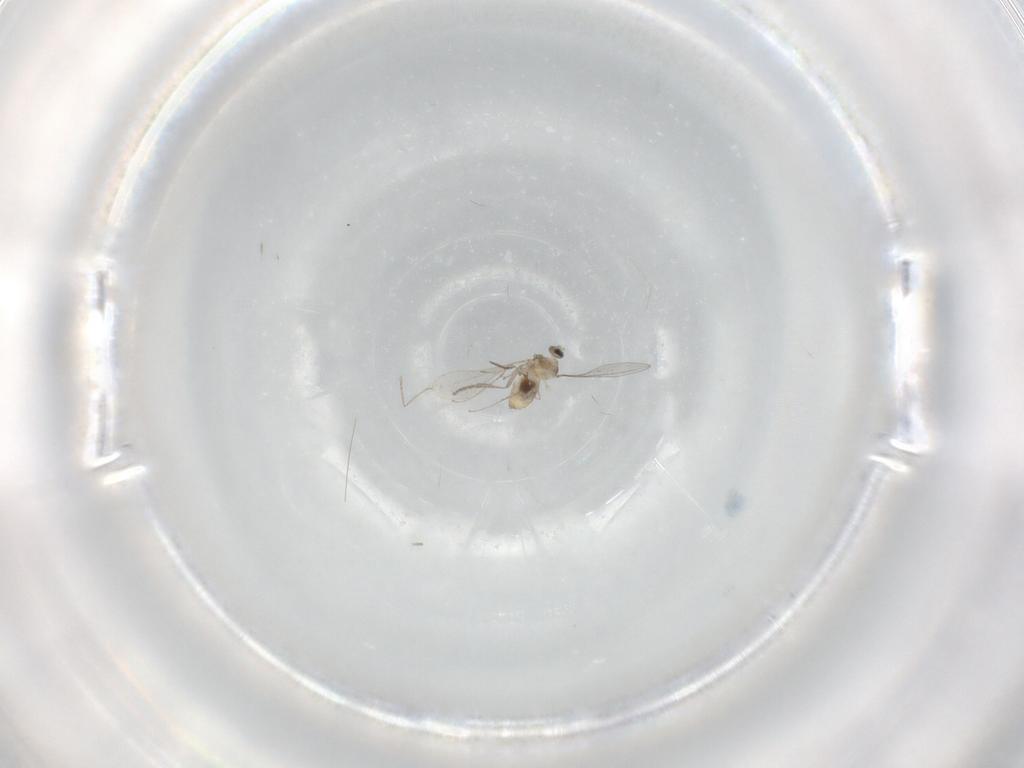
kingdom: Animalia
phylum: Arthropoda
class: Insecta
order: Diptera
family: Cecidomyiidae
